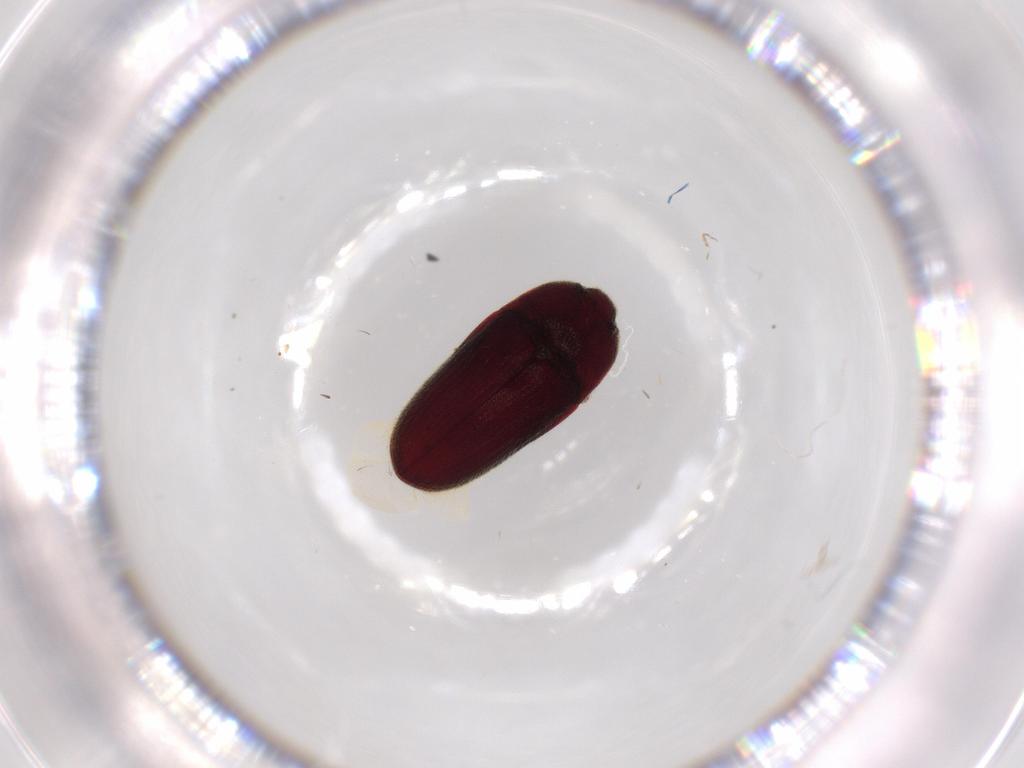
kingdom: Animalia
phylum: Arthropoda
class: Insecta
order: Coleoptera
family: Throscidae
